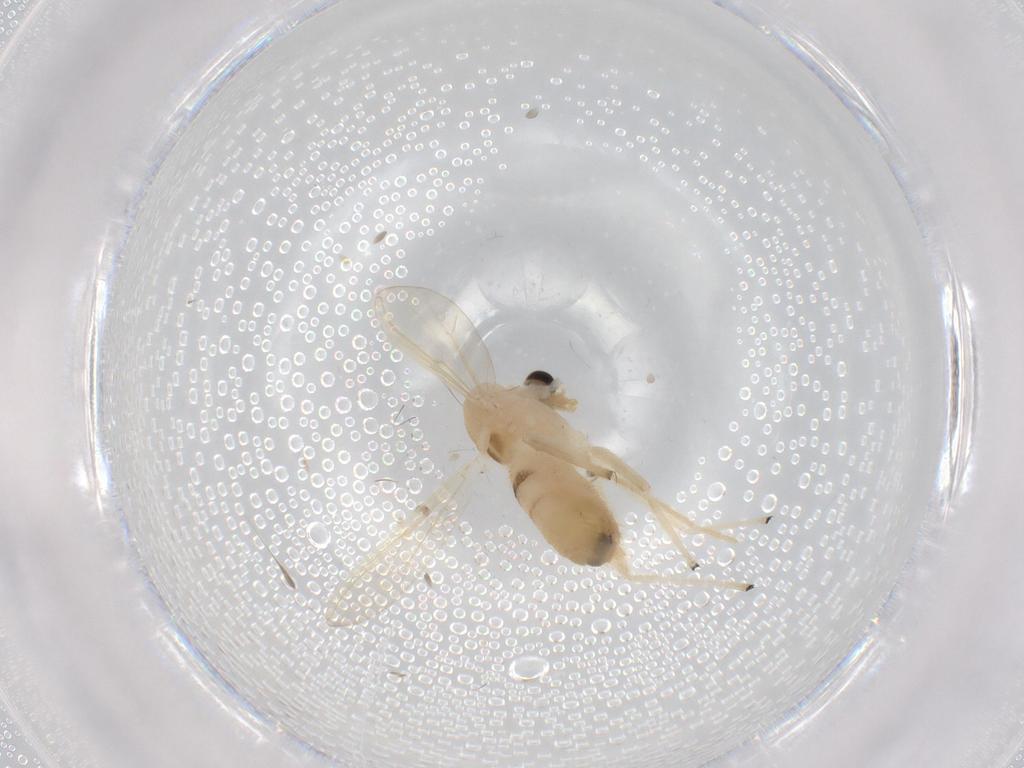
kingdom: Animalia
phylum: Arthropoda
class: Insecta
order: Diptera
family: Chironomidae
